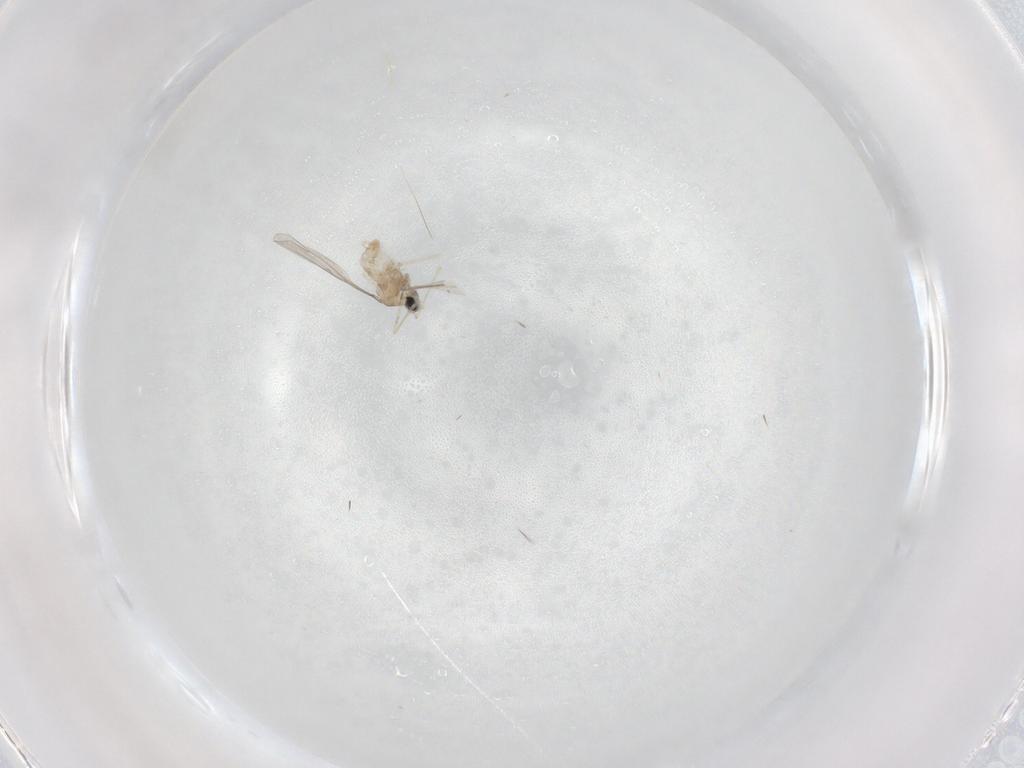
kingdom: Animalia
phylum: Arthropoda
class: Insecta
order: Diptera
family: Cecidomyiidae
